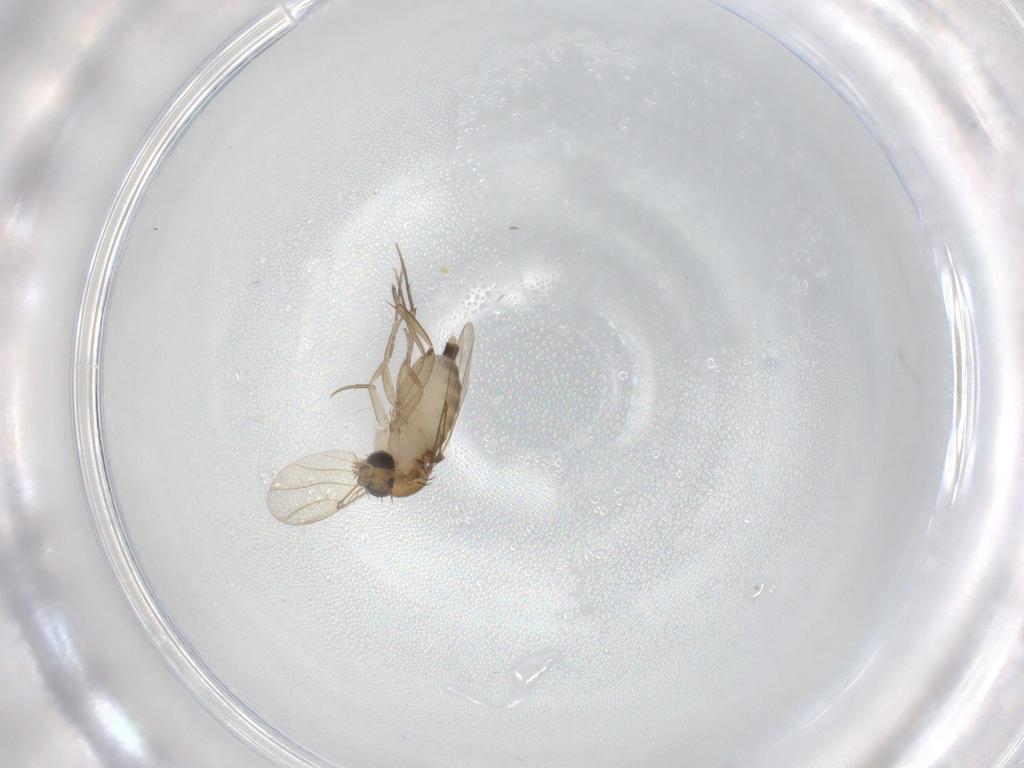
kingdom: Animalia
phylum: Arthropoda
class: Insecta
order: Diptera
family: Phoridae
